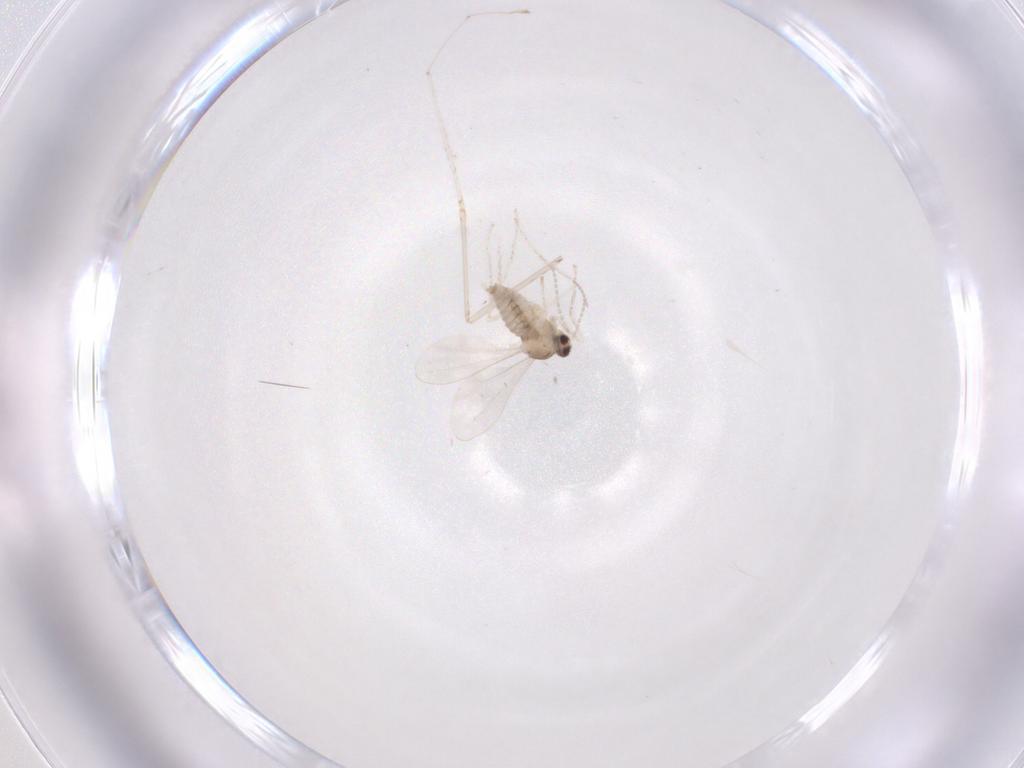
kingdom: Animalia
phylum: Arthropoda
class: Insecta
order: Diptera
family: Cecidomyiidae
